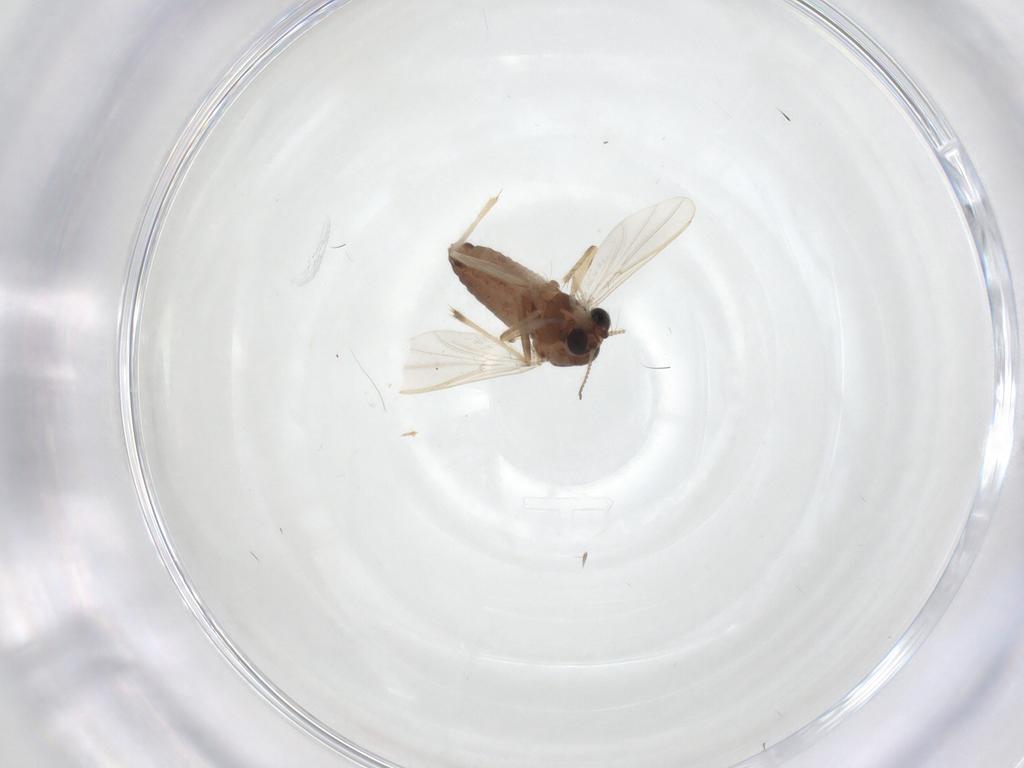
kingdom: Animalia
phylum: Arthropoda
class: Insecta
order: Diptera
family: Chironomidae
